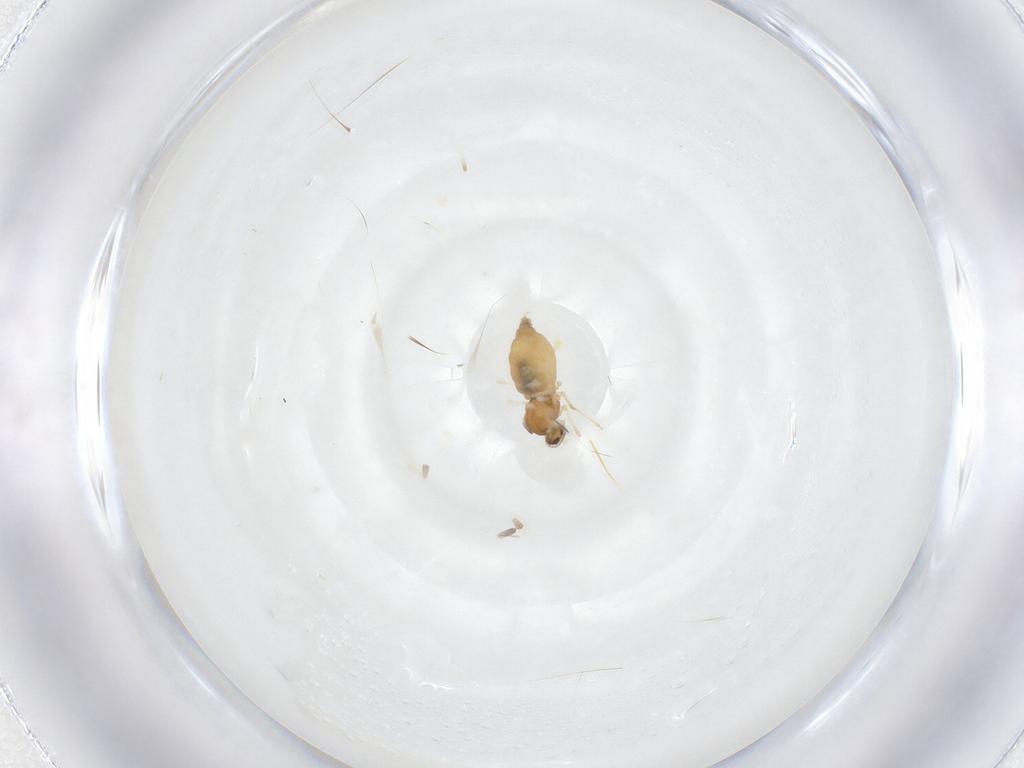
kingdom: Animalia
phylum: Arthropoda
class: Insecta
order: Diptera
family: Cecidomyiidae
